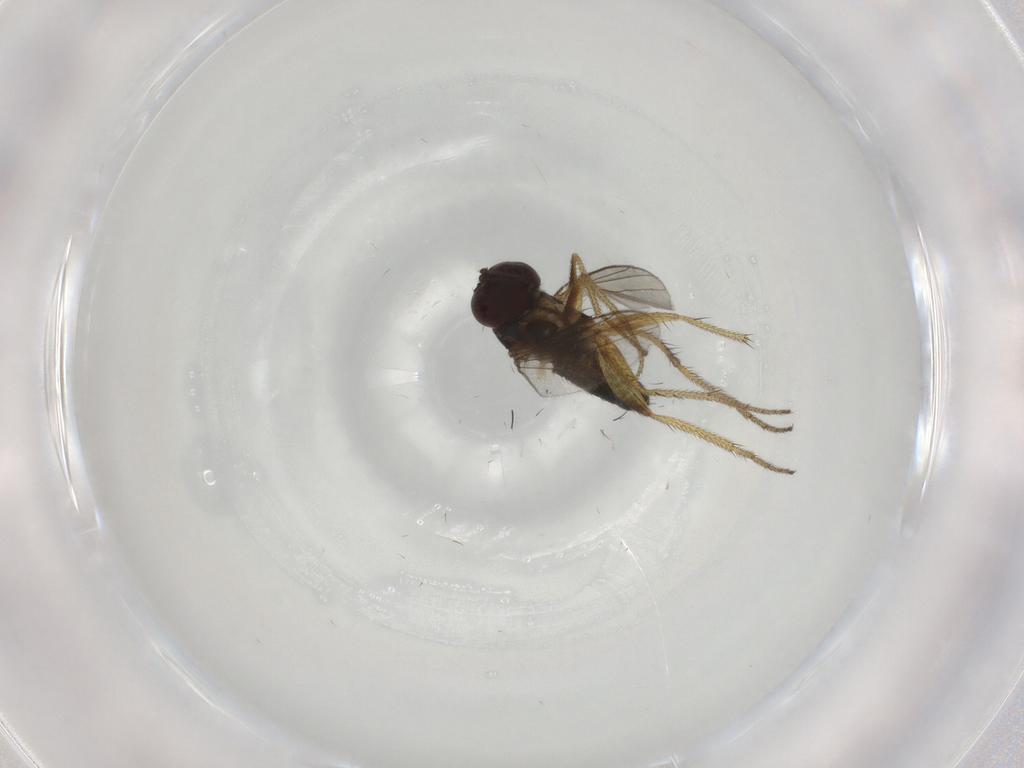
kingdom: Animalia
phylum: Arthropoda
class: Insecta
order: Diptera
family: Dolichopodidae
